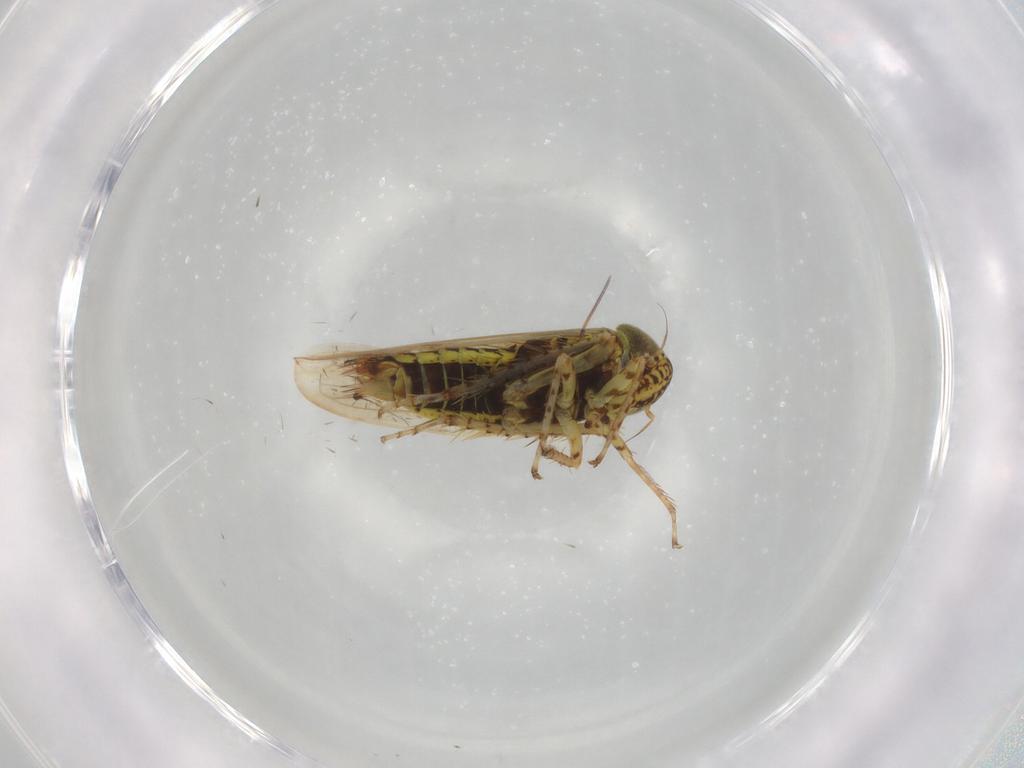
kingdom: Animalia
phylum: Arthropoda
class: Insecta
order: Hemiptera
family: Cicadellidae
